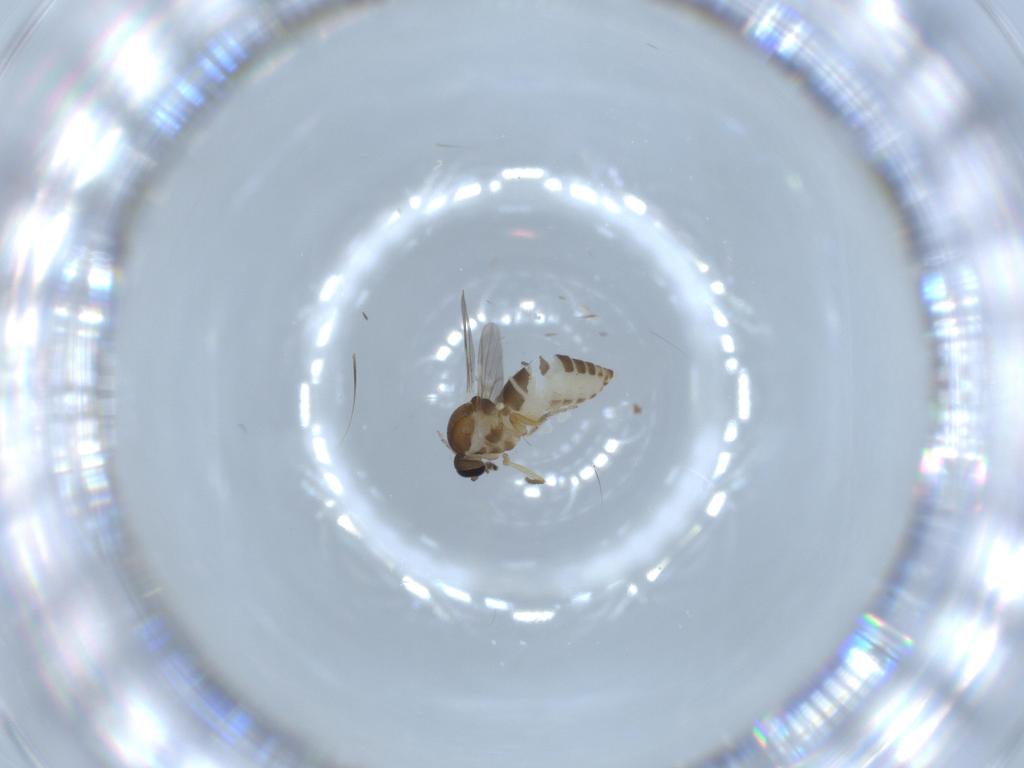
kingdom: Animalia
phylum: Arthropoda
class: Insecta
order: Diptera
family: Ceratopogonidae
